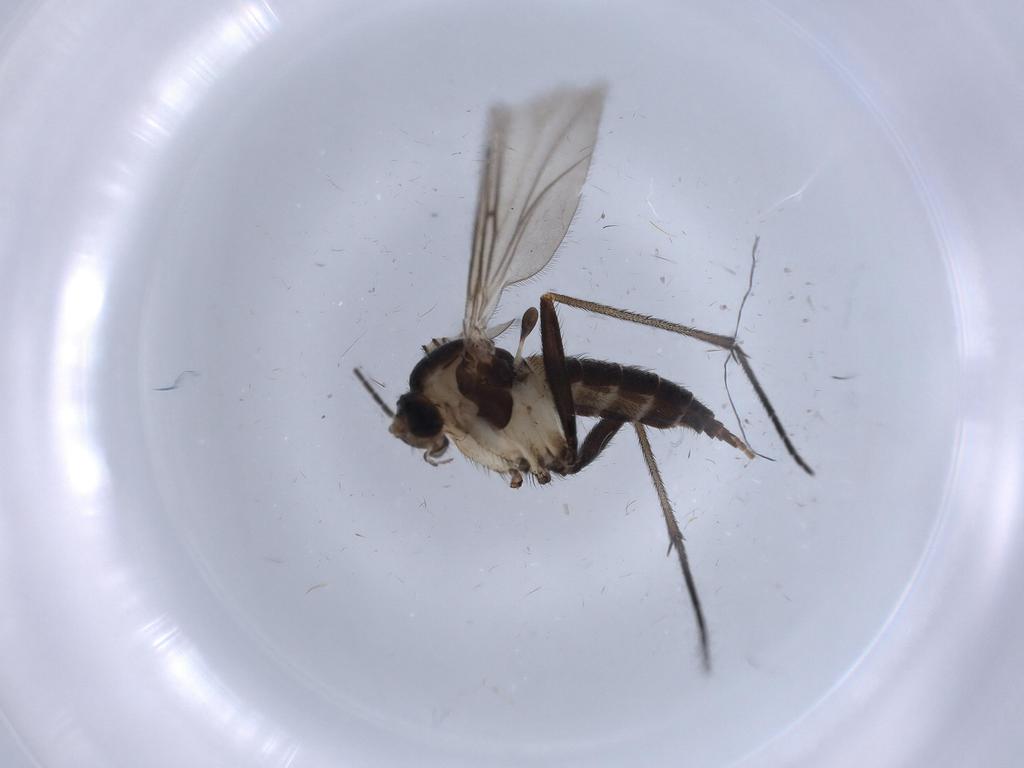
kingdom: Animalia
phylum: Arthropoda
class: Insecta
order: Diptera
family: Sciaridae
